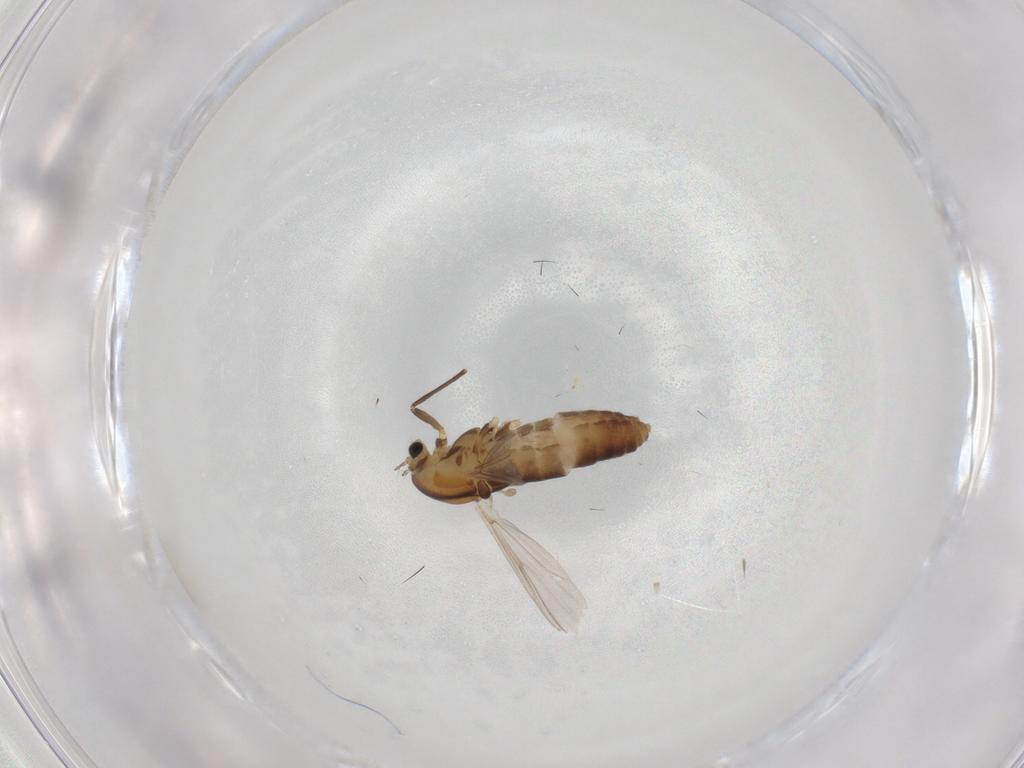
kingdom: Animalia
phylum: Arthropoda
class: Insecta
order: Diptera
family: Chironomidae
